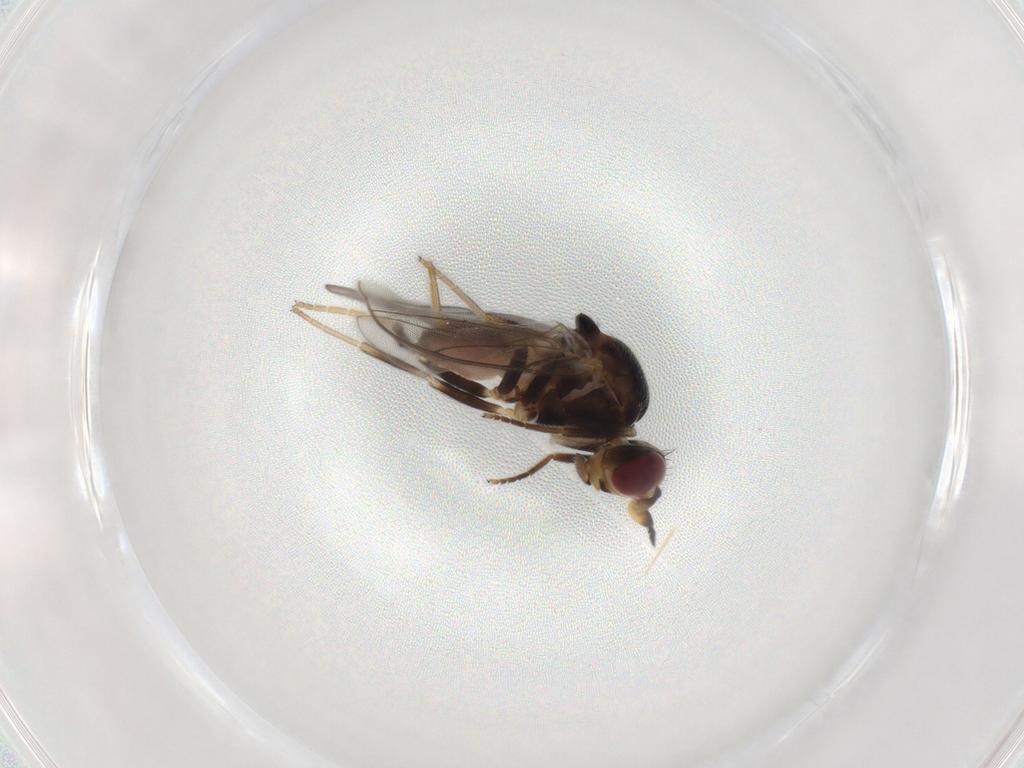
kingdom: Animalia
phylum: Arthropoda
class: Insecta
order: Diptera
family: Chloropidae
